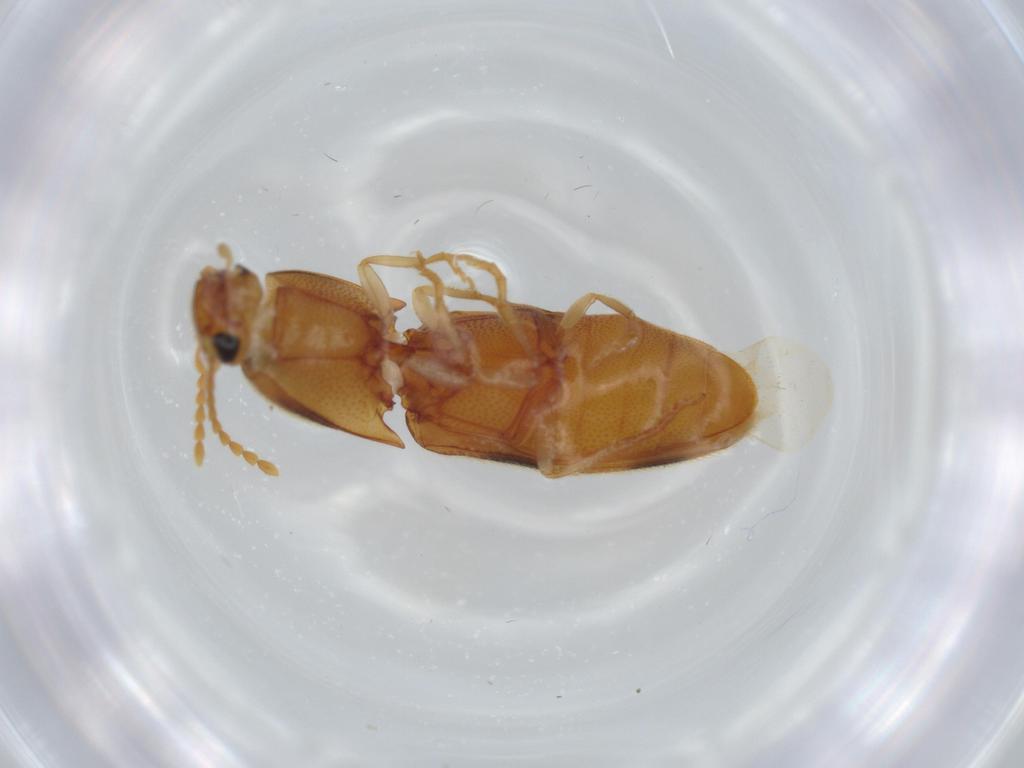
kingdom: Animalia
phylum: Arthropoda
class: Insecta
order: Coleoptera
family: Elateridae
